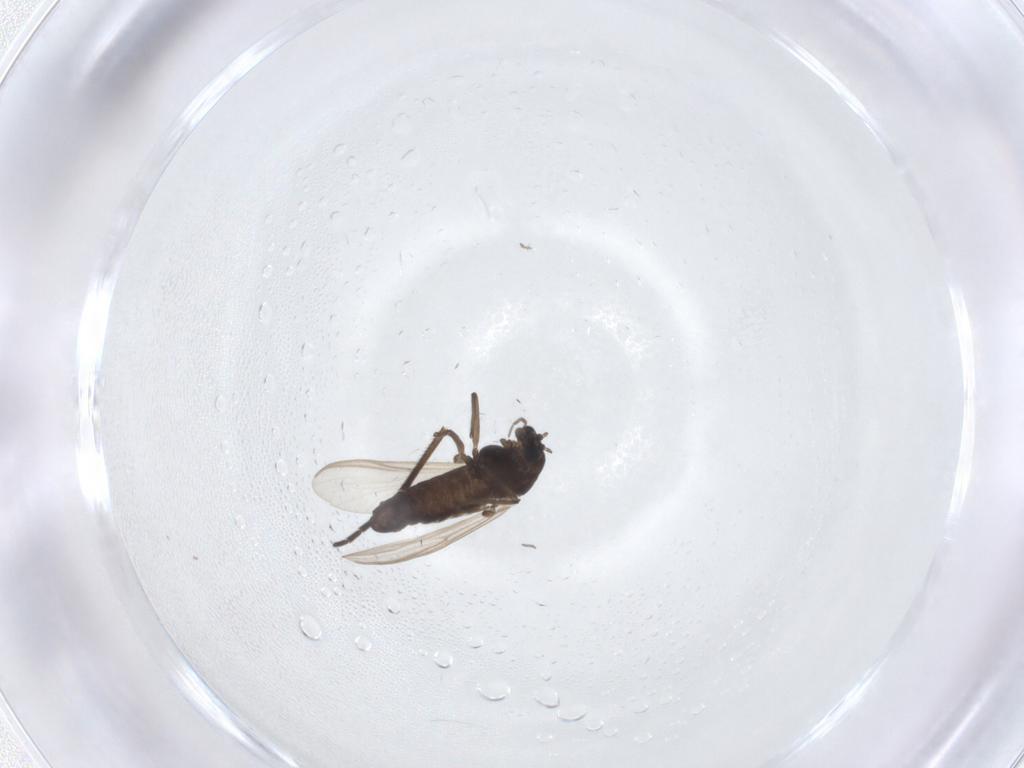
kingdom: Animalia
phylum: Arthropoda
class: Insecta
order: Diptera
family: Sciaridae
